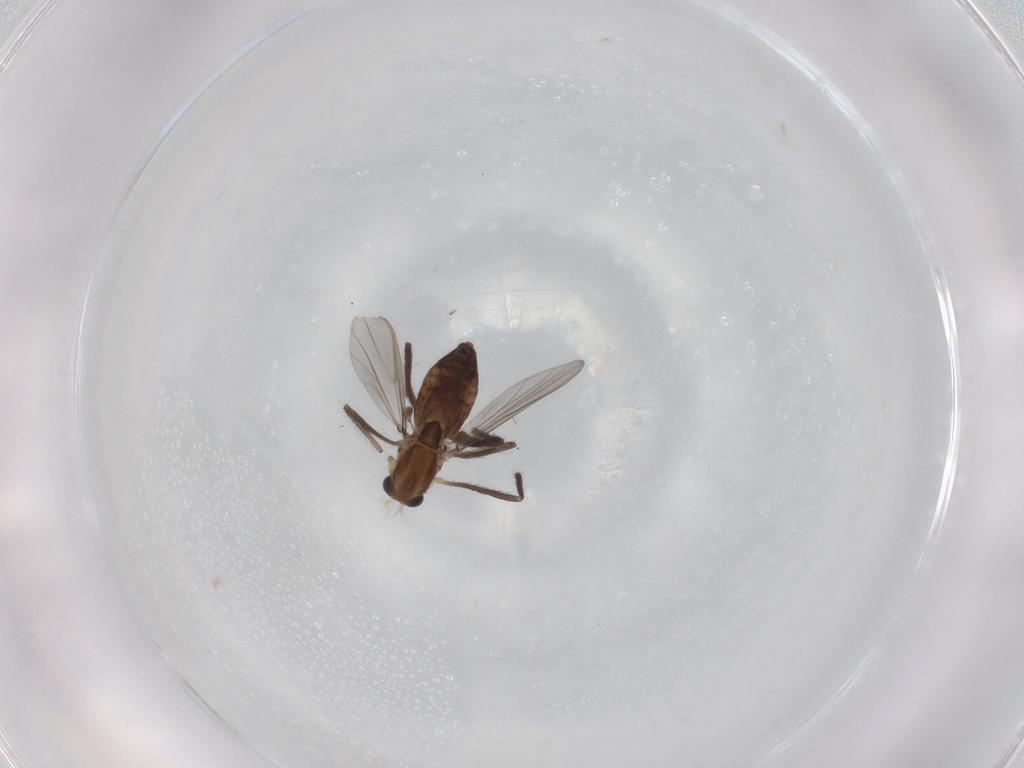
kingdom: Animalia
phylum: Arthropoda
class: Insecta
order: Diptera
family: Chironomidae
